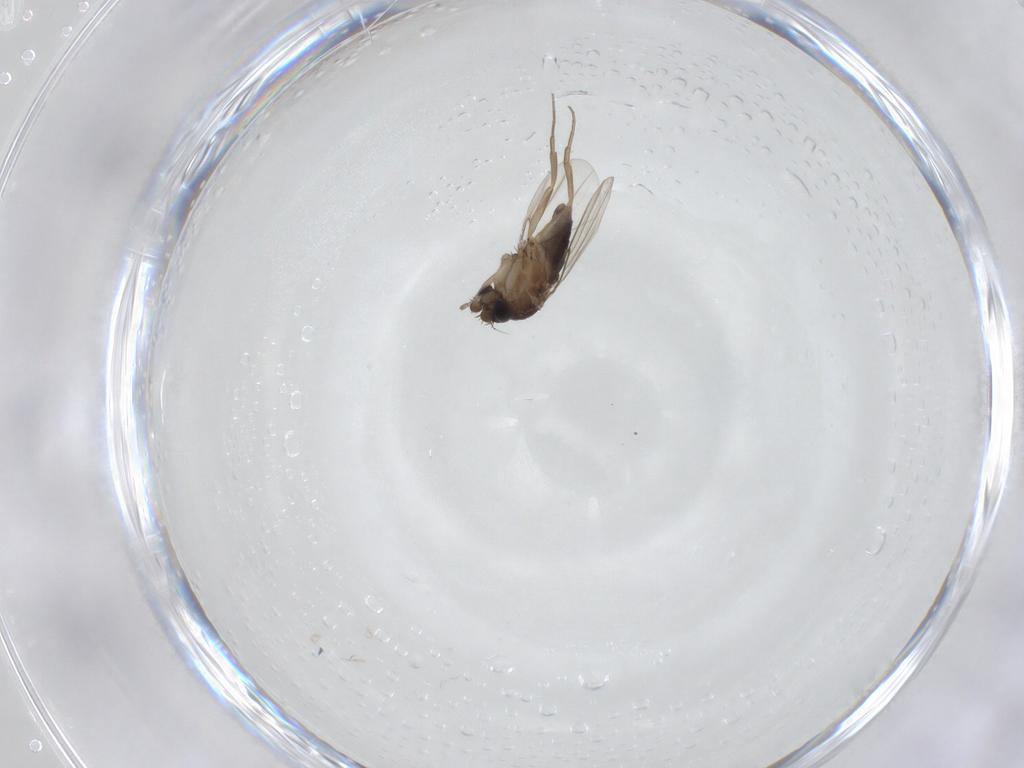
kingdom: Animalia
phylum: Arthropoda
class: Insecta
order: Diptera
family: Phoridae
